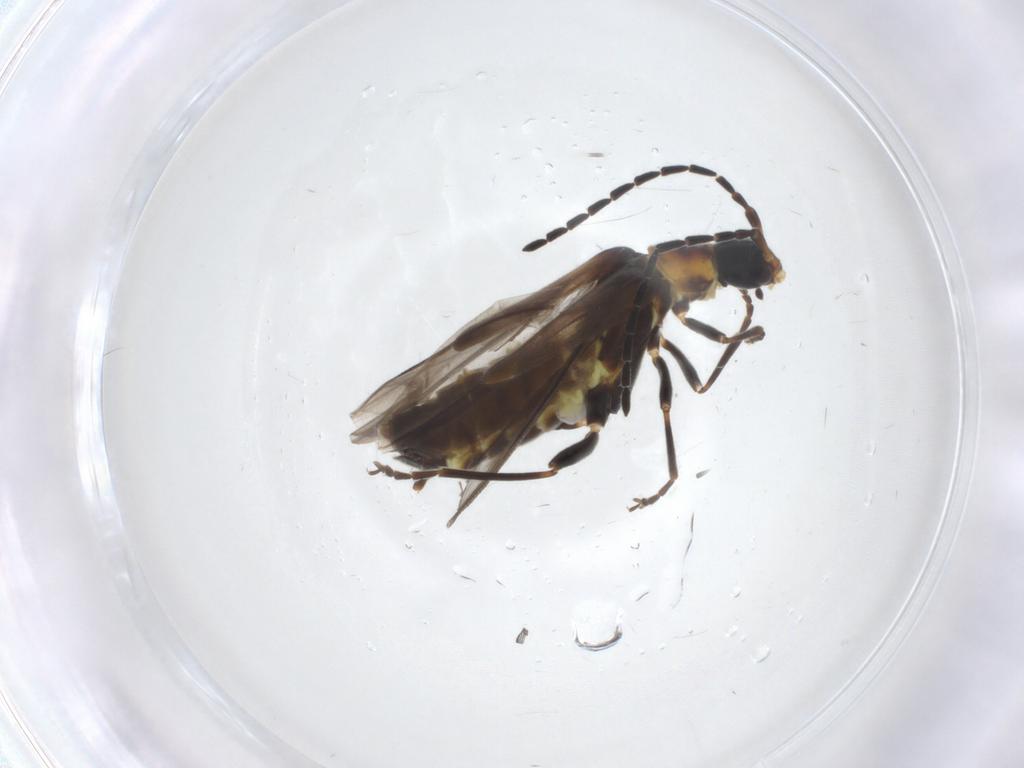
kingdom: Animalia
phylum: Arthropoda
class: Insecta
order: Coleoptera
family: Cantharidae
